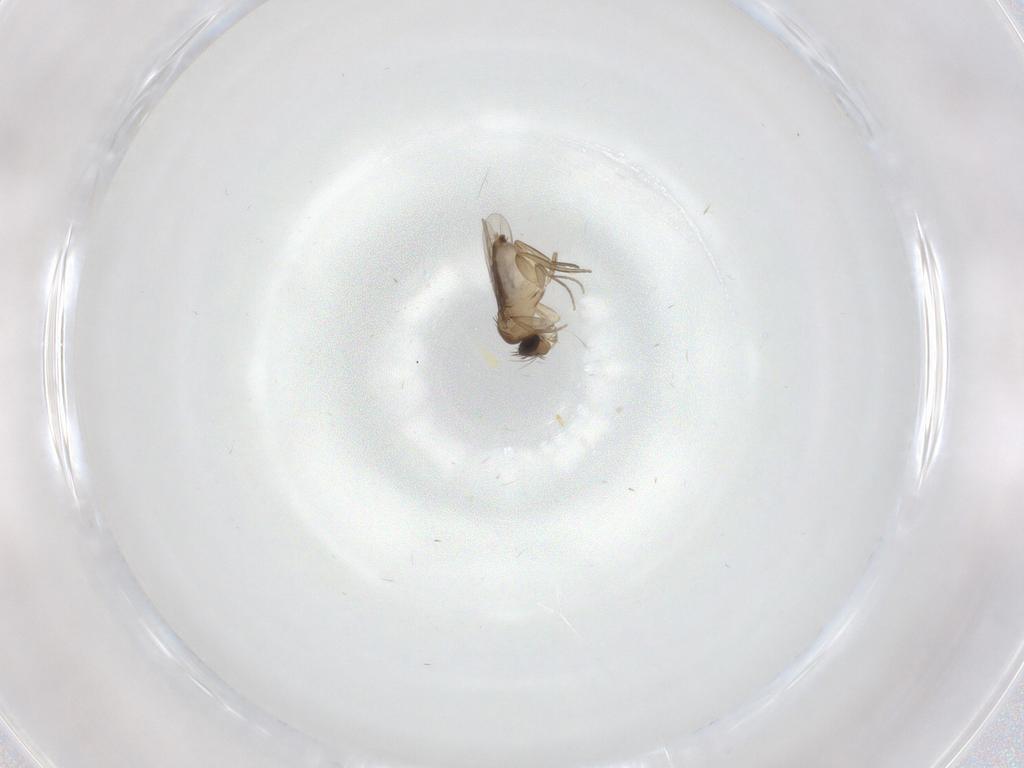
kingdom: Animalia
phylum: Arthropoda
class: Insecta
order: Diptera
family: Phoridae
